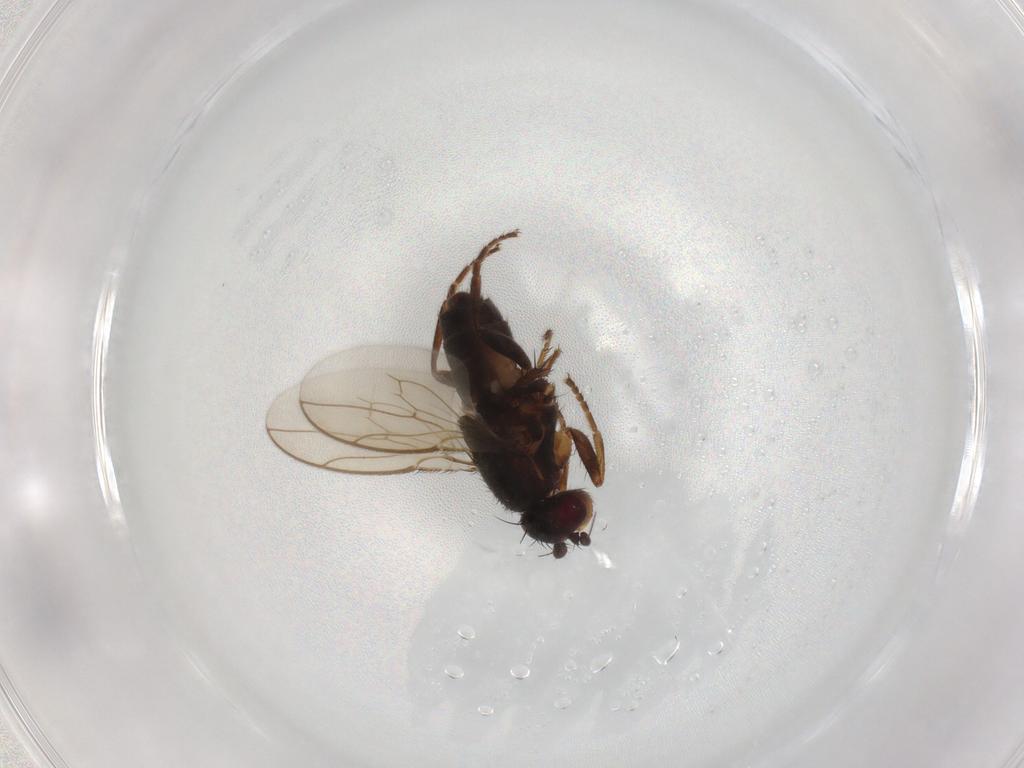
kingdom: Animalia
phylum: Arthropoda
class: Insecta
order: Diptera
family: Sphaeroceridae
